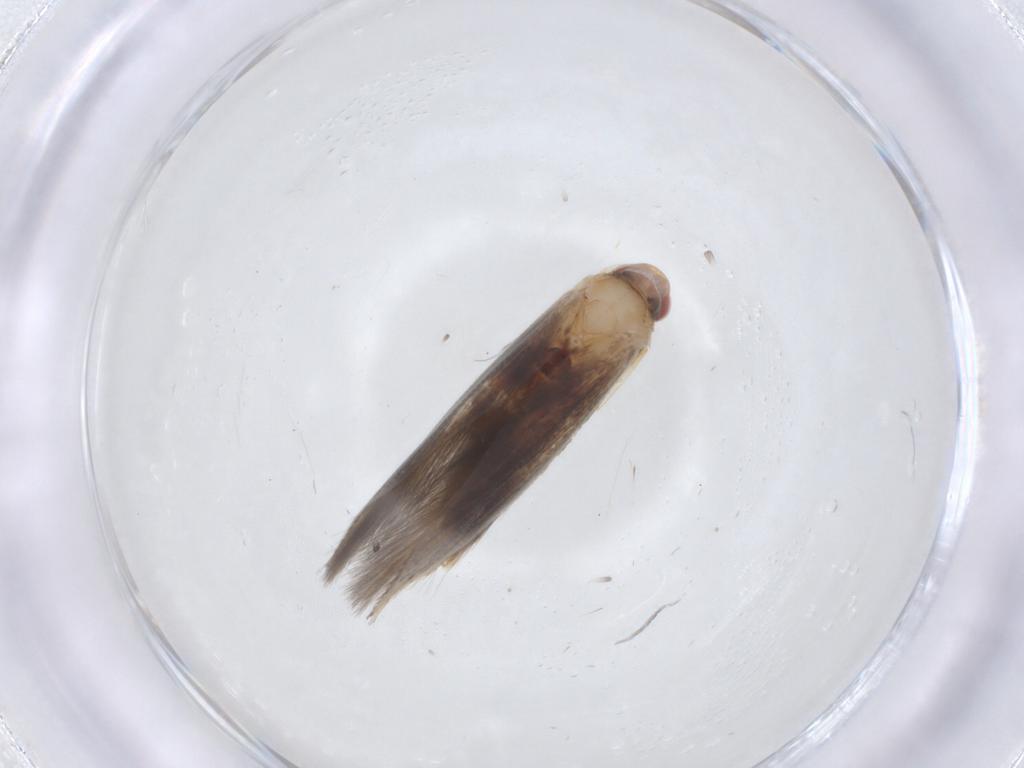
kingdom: Animalia
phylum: Arthropoda
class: Insecta
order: Lepidoptera
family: Cosmopterigidae
